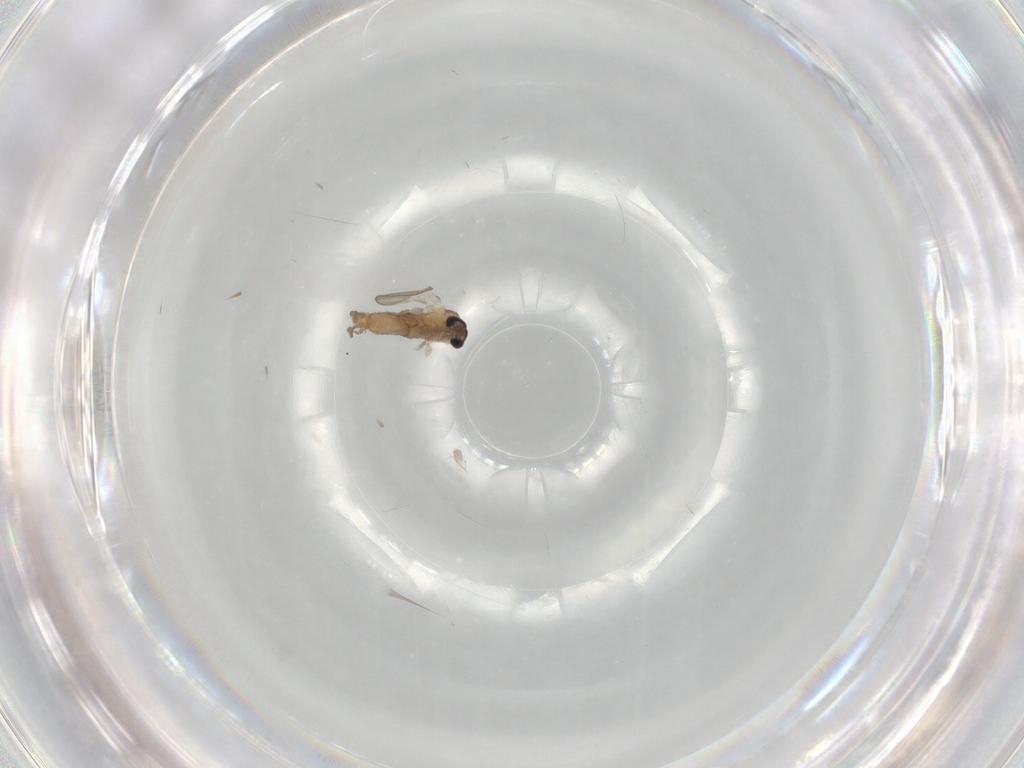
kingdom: Animalia
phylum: Arthropoda
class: Insecta
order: Diptera
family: Psychodidae
